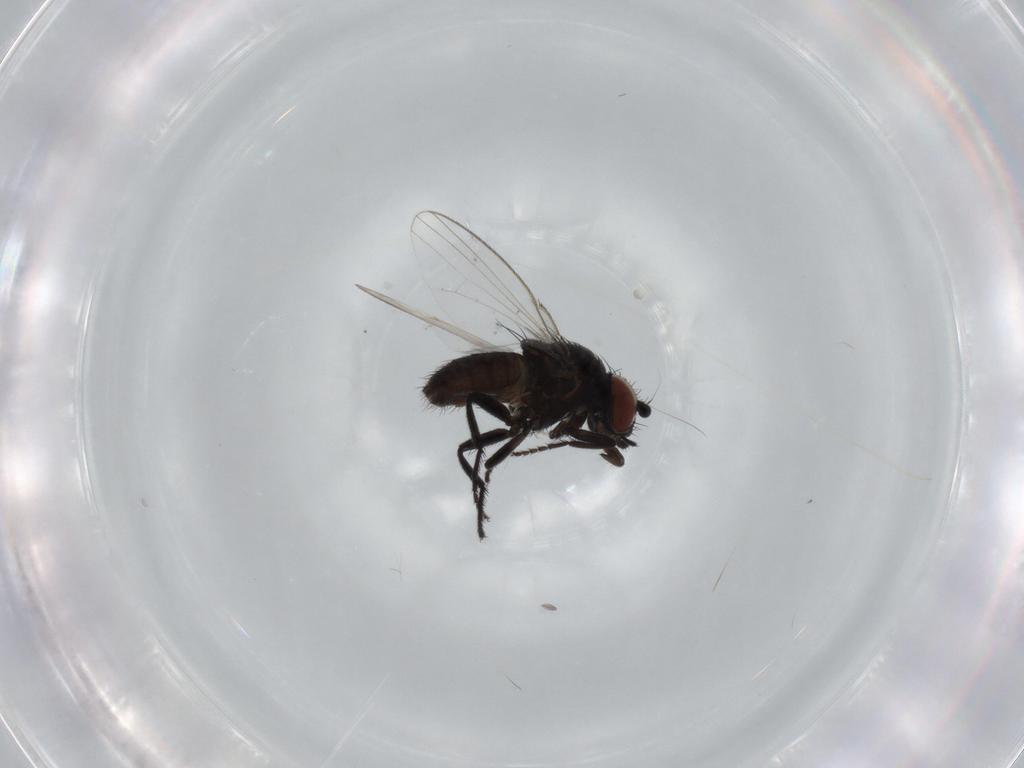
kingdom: Animalia
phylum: Arthropoda
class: Insecta
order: Diptera
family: Milichiidae
